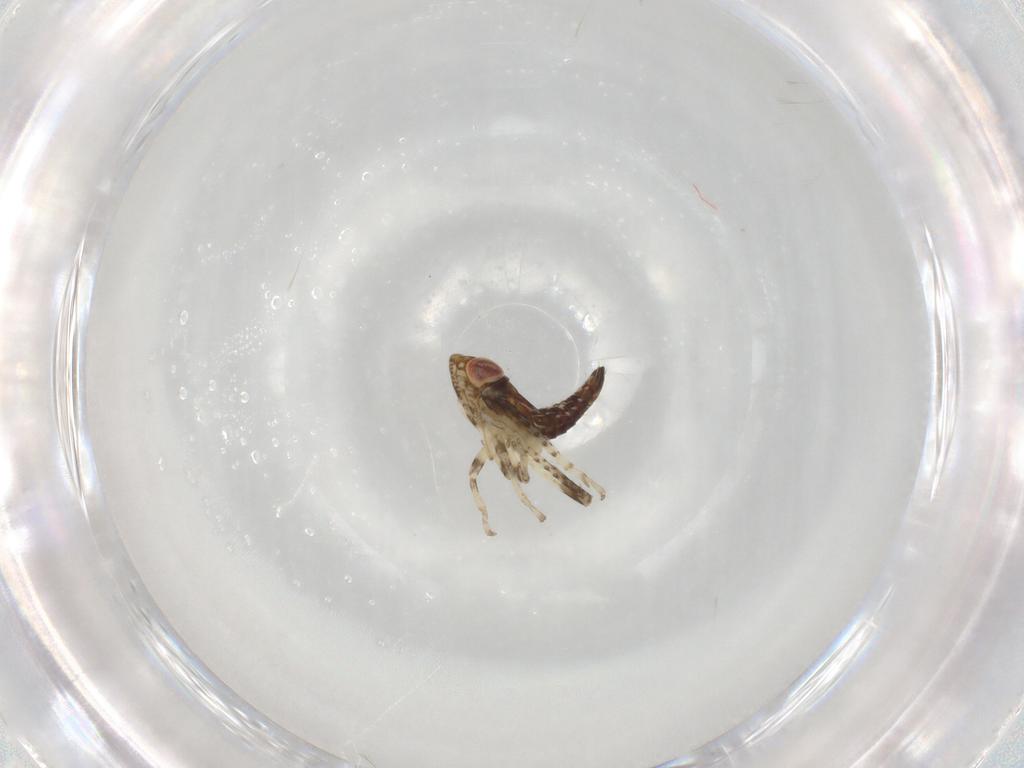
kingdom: Animalia
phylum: Arthropoda
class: Insecta
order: Hemiptera
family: Cicadellidae
